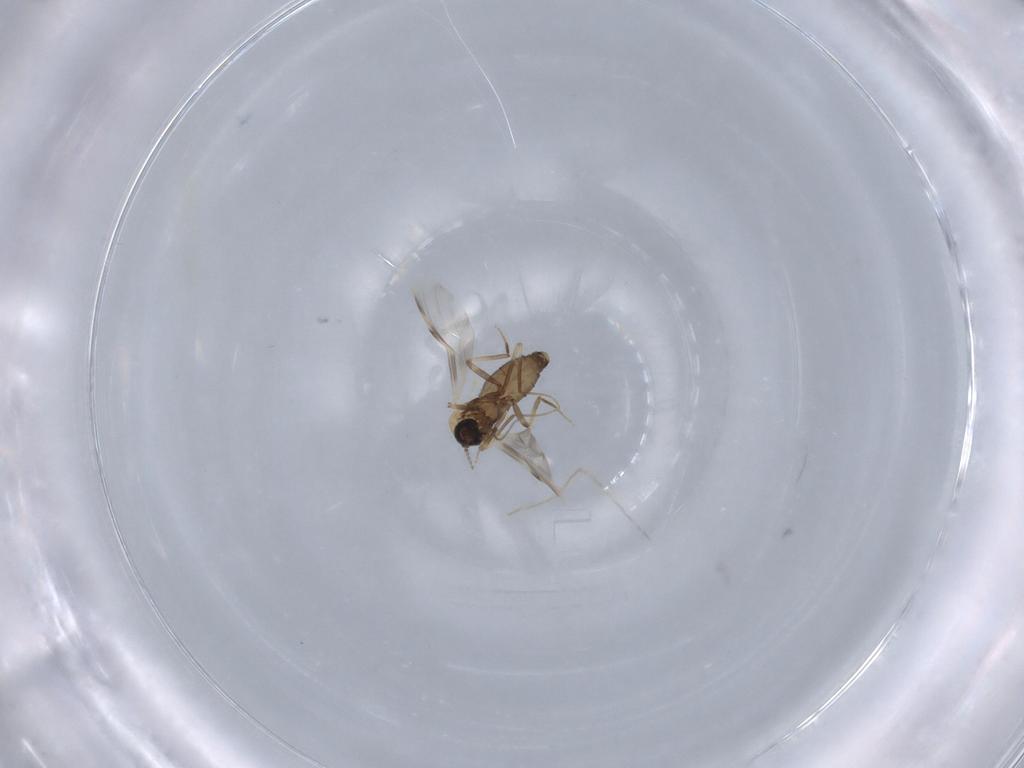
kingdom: Animalia
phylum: Arthropoda
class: Insecta
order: Diptera
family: Ceratopogonidae
